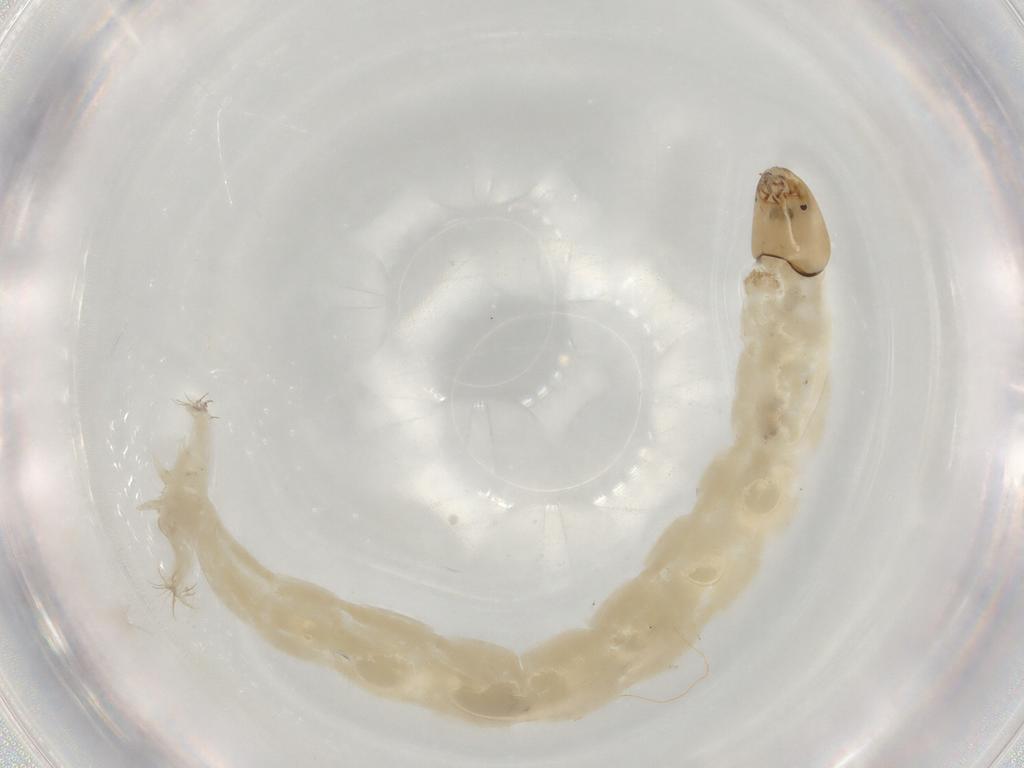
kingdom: Animalia
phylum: Arthropoda
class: Insecta
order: Diptera
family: Chironomidae
